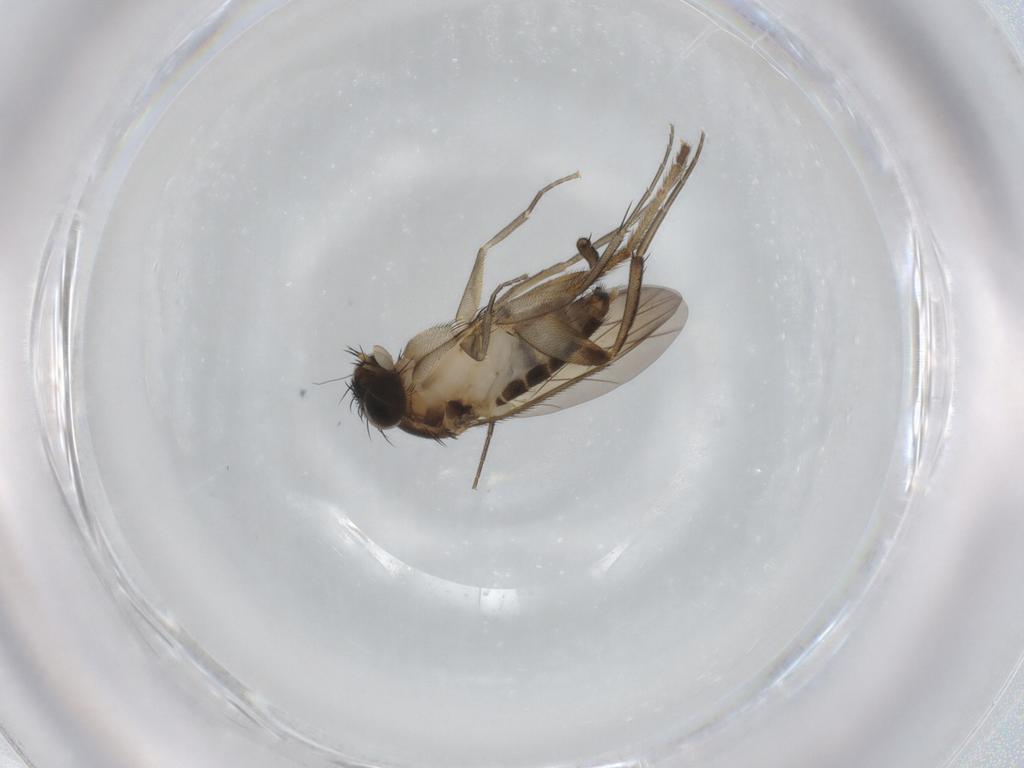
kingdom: Animalia
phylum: Arthropoda
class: Insecta
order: Diptera
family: Phoridae
